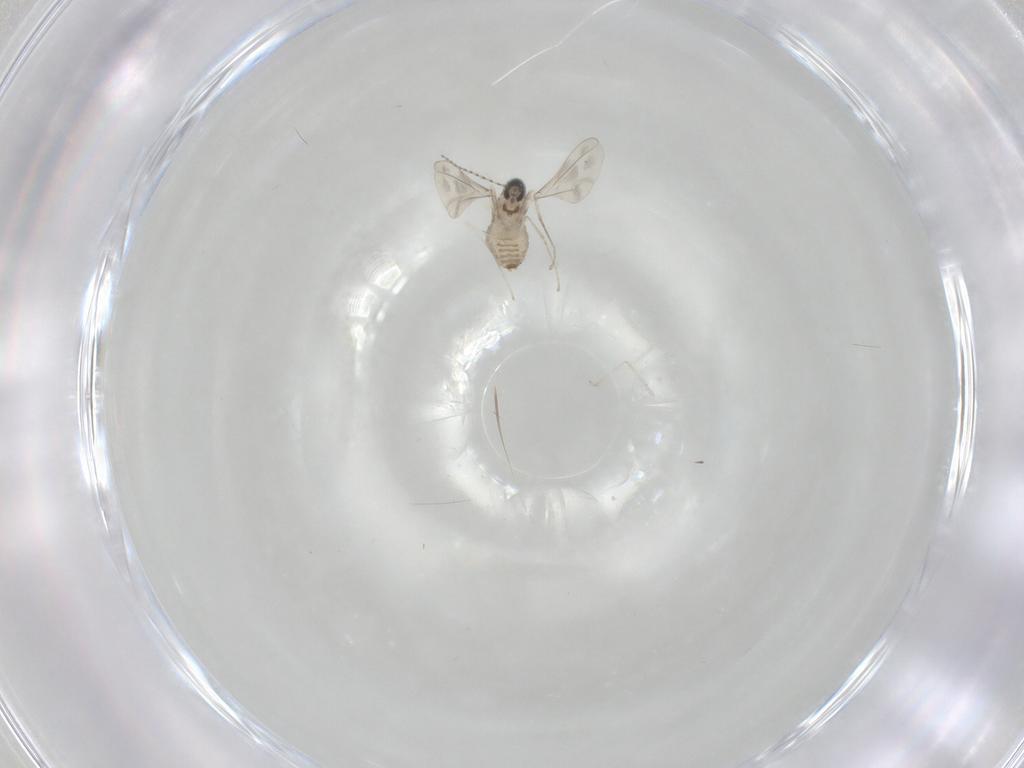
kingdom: Animalia
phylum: Arthropoda
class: Insecta
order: Diptera
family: Cecidomyiidae
